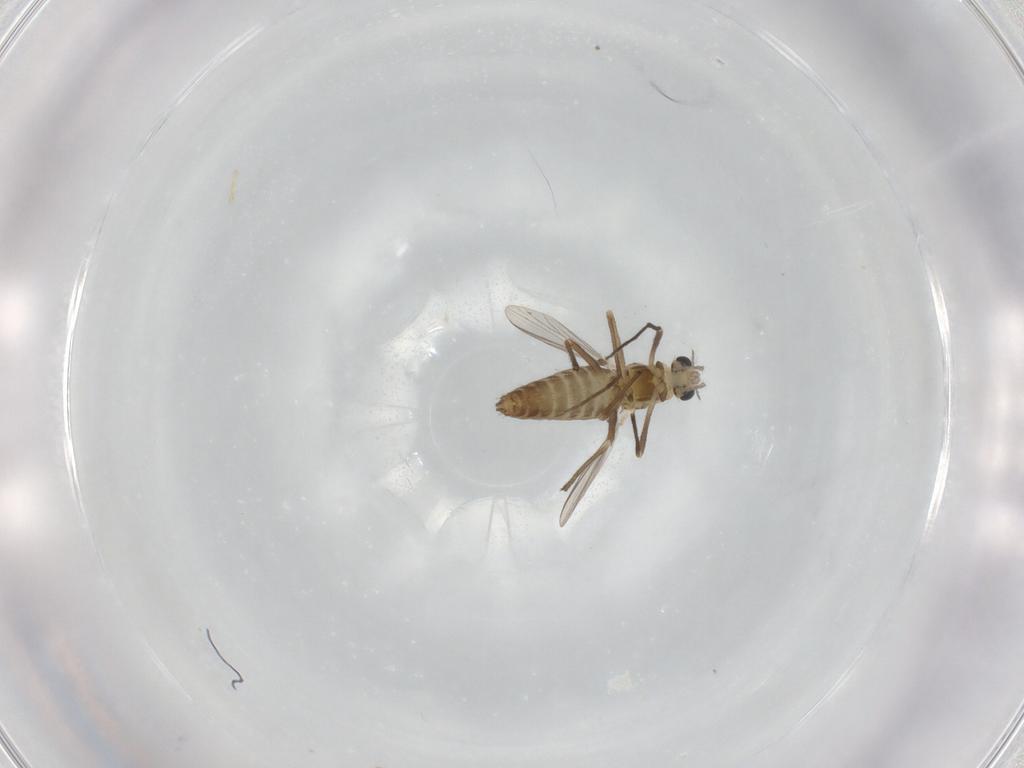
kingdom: Animalia
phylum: Arthropoda
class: Insecta
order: Diptera
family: Chironomidae
